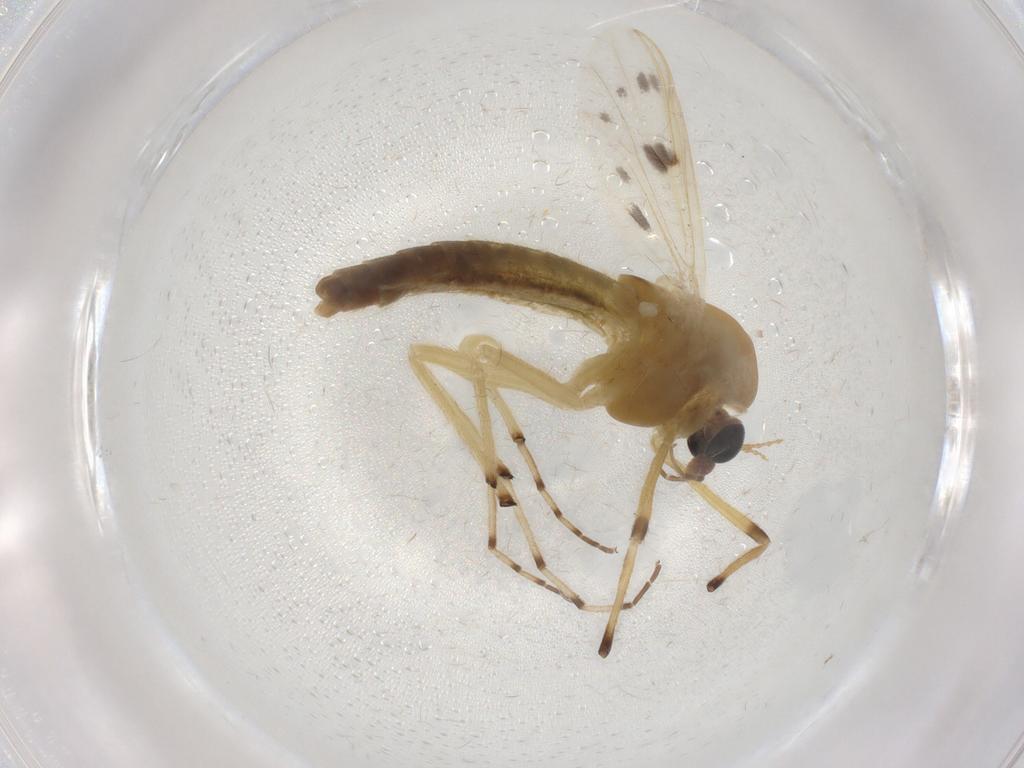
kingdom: Animalia
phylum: Arthropoda
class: Insecta
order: Diptera
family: Chironomidae
